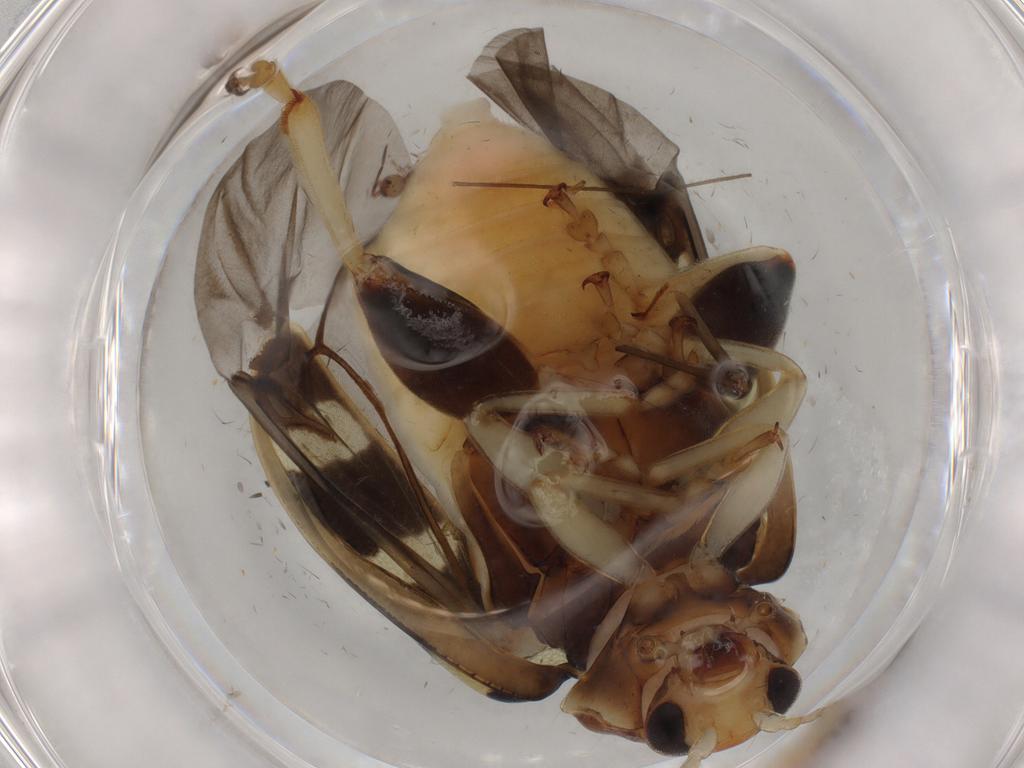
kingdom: Animalia
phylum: Arthropoda
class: Insecta
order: Coleoptera
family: Chrysomelidae
